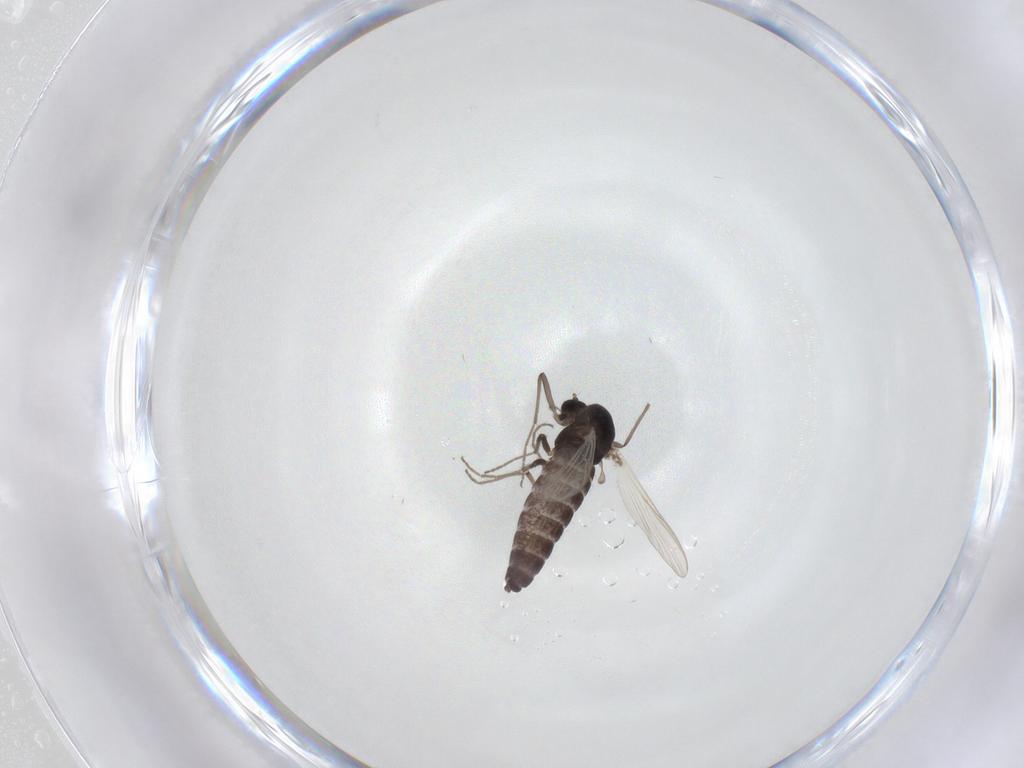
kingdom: Animalia
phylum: Arthropoda
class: Insecta
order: Diptera
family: Chironomidae
